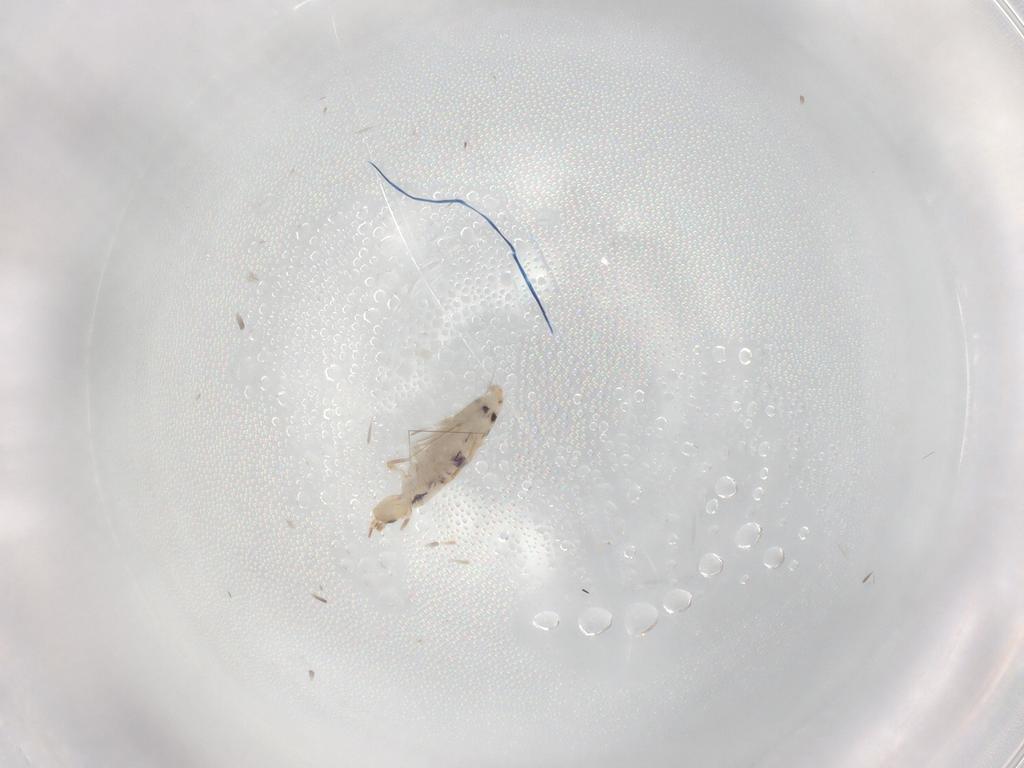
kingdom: Animalia
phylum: Arthropoda
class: Collembola
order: Entomobryomorpha
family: Entomobryidae
